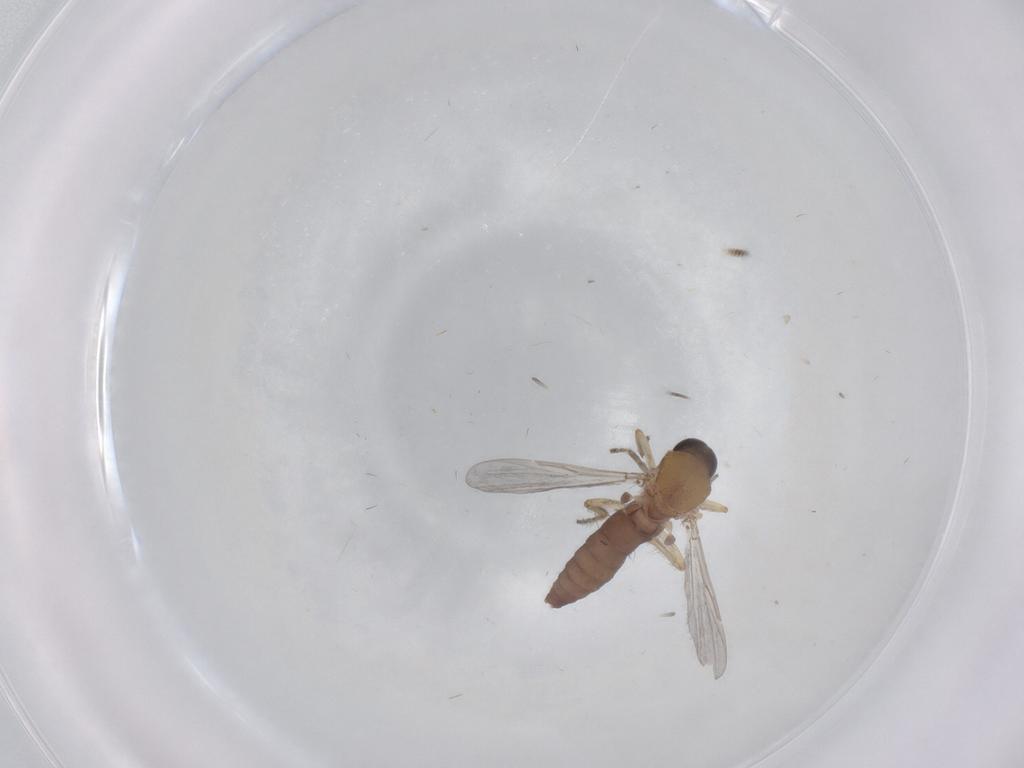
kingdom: Animalia
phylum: Arthropoda
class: Insecta
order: Diptera
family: Ceratopogonidae
